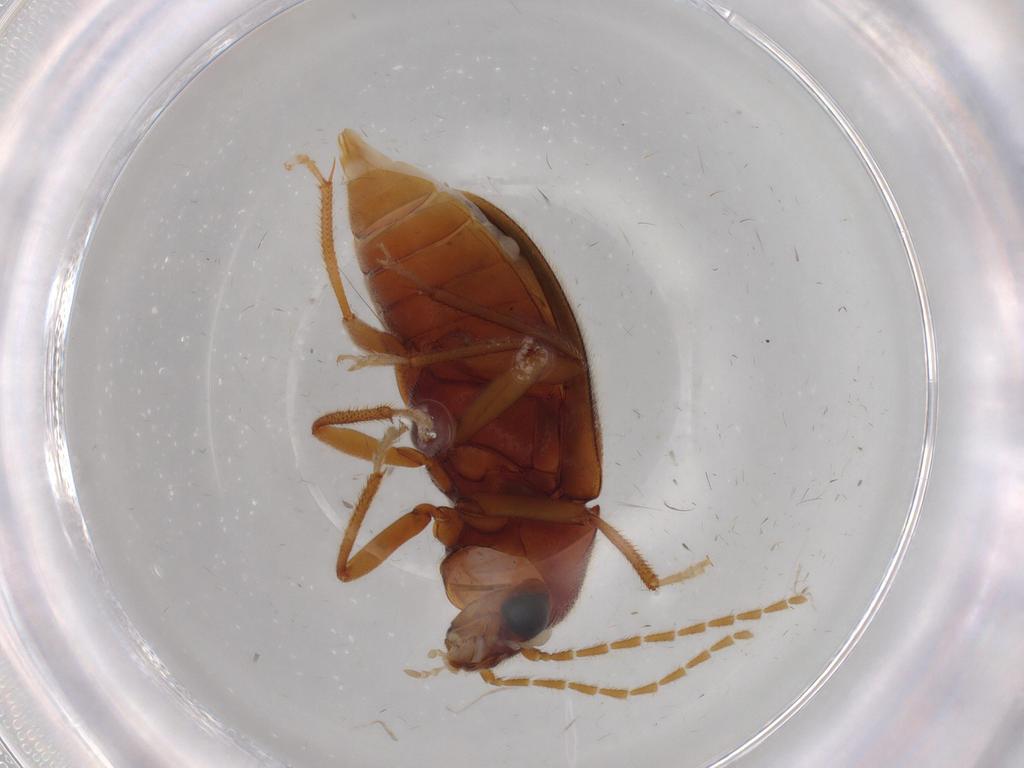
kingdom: Animalia
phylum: Arthropoda
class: Insecta
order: Coleoptera
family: Ptilodactylidae
